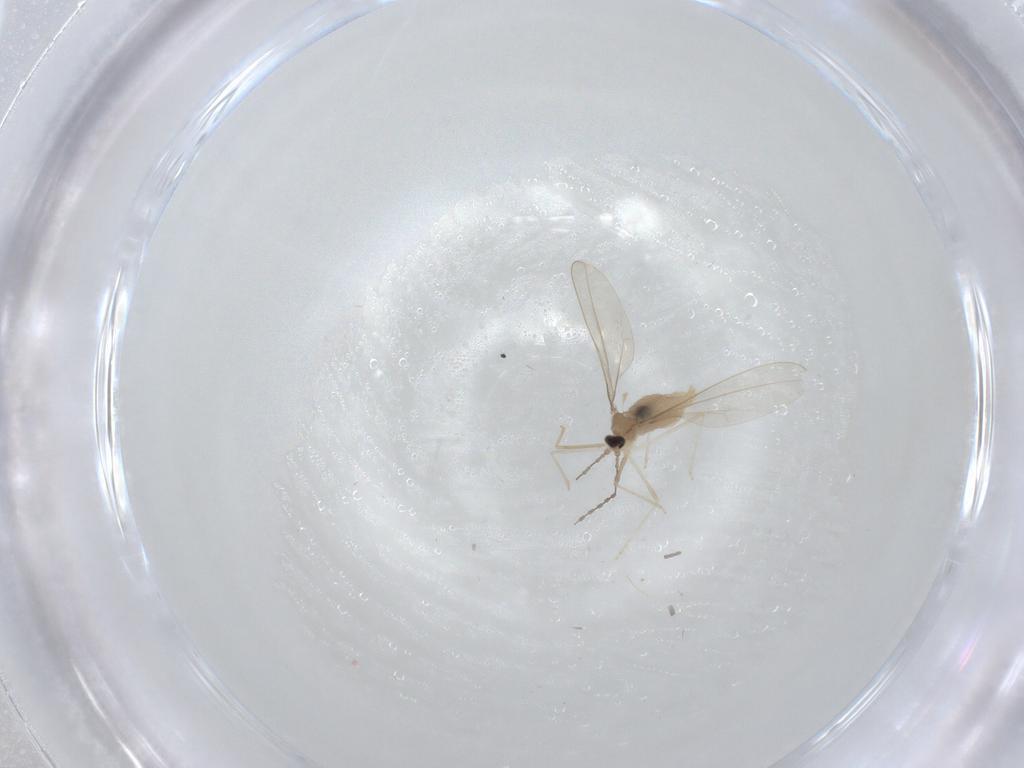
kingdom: Animalia
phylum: Arthropoda
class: Insecta
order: Diptera
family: Cecidomyiidae
